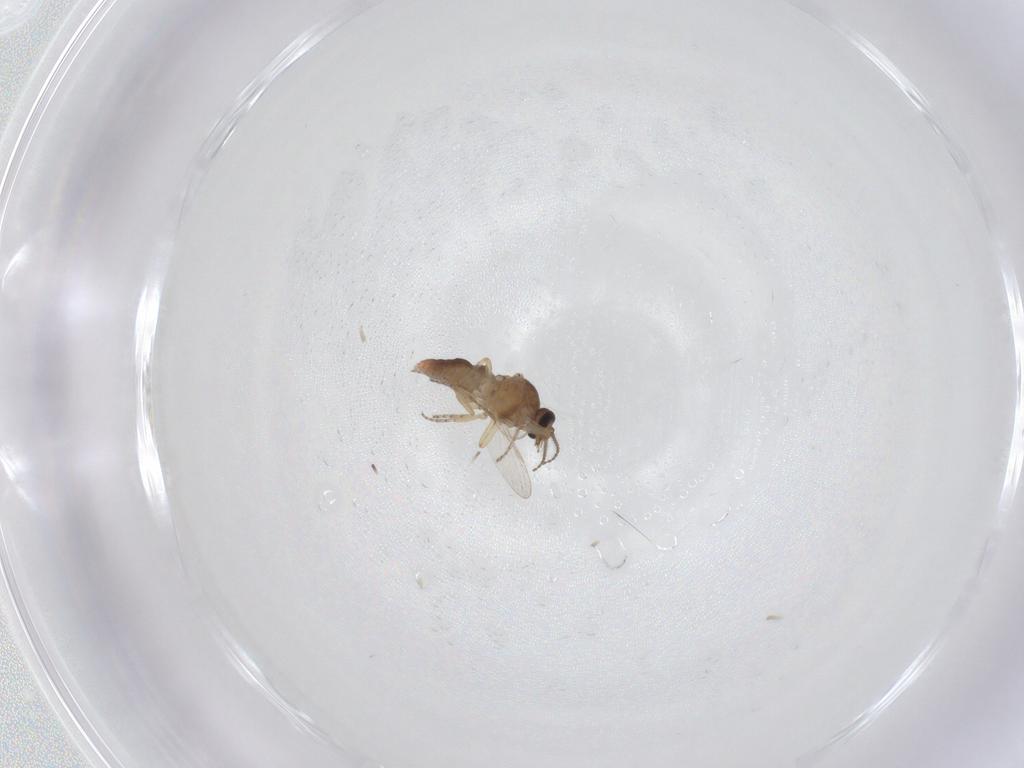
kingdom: Animalia
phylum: Arthropoda
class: Insecta
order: Diptera
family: Ceratopogonidae
